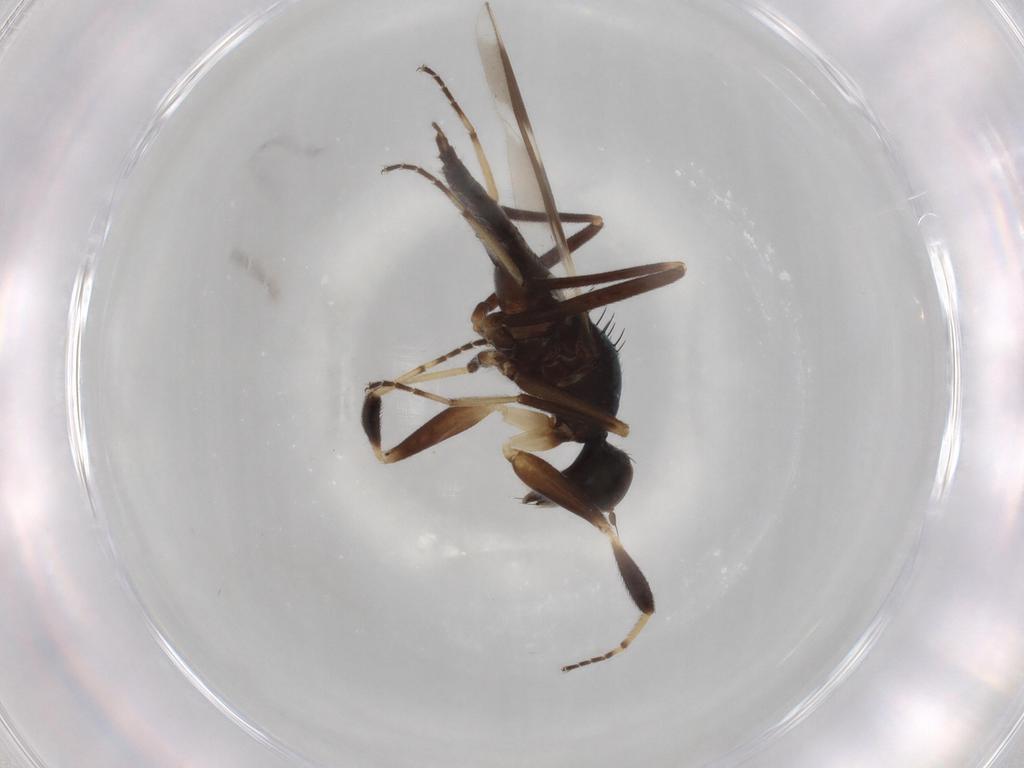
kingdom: Animalia
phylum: Arthropoda
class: Insecta
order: Diptera
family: Hybotidae
